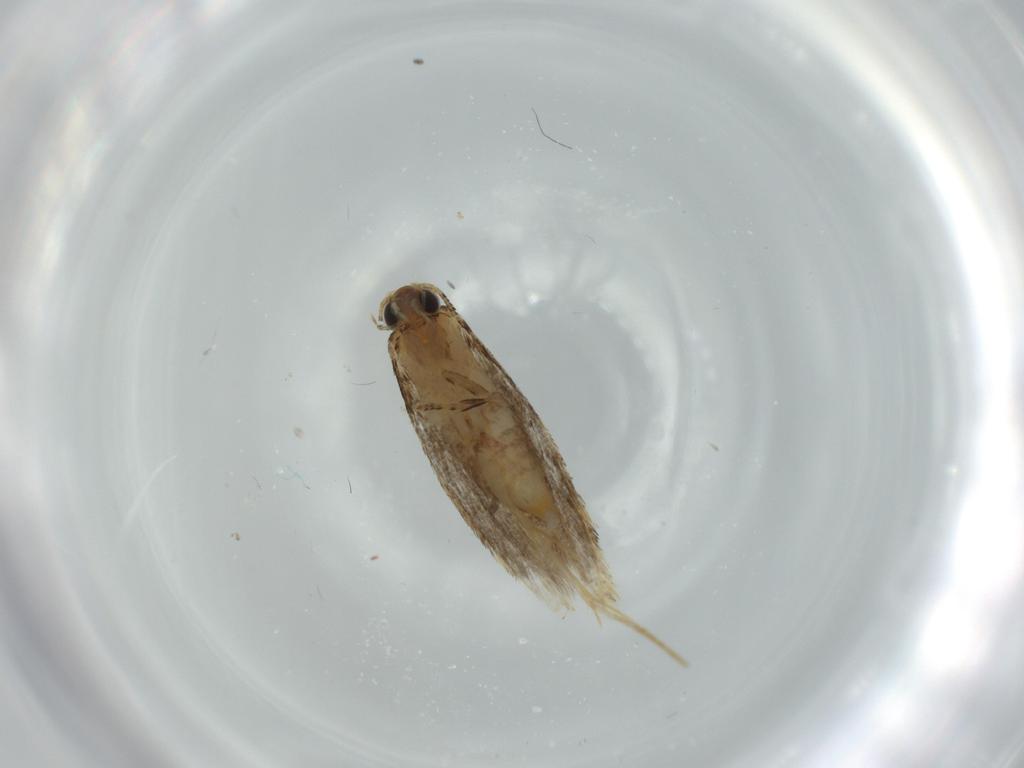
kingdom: Animalia
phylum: Arthropoda
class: Insecta
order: Lepidoptera
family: Tineidae
